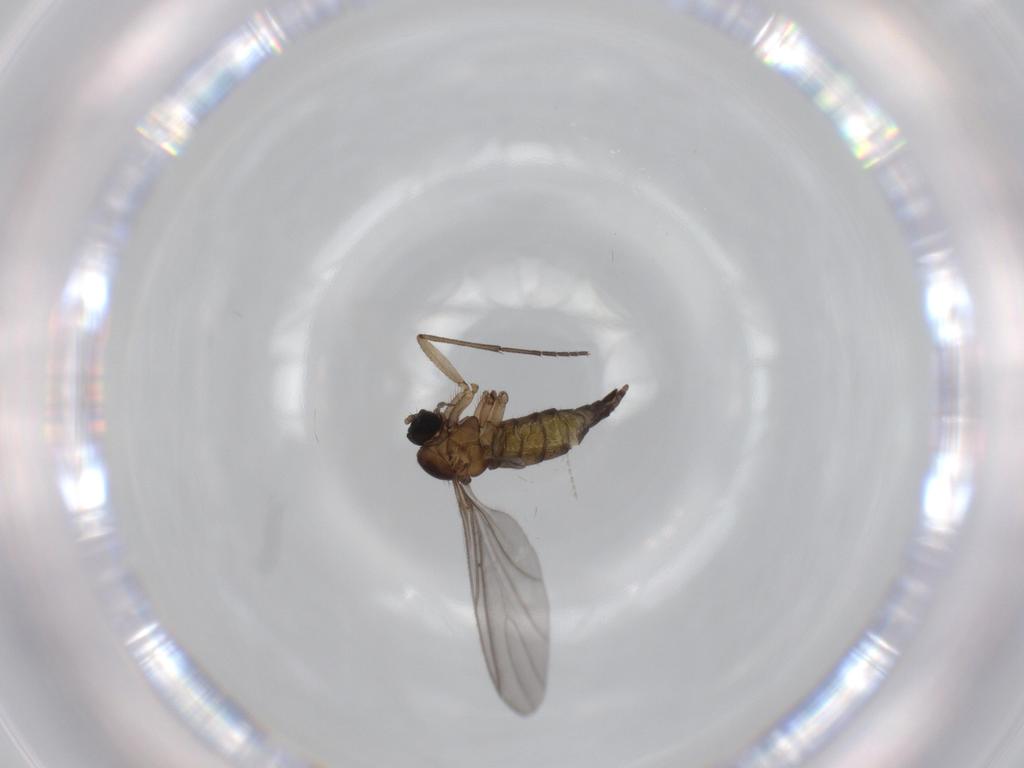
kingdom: Animalia
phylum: Arthropoda
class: Insecta
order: Diptera
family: Sciaridae
